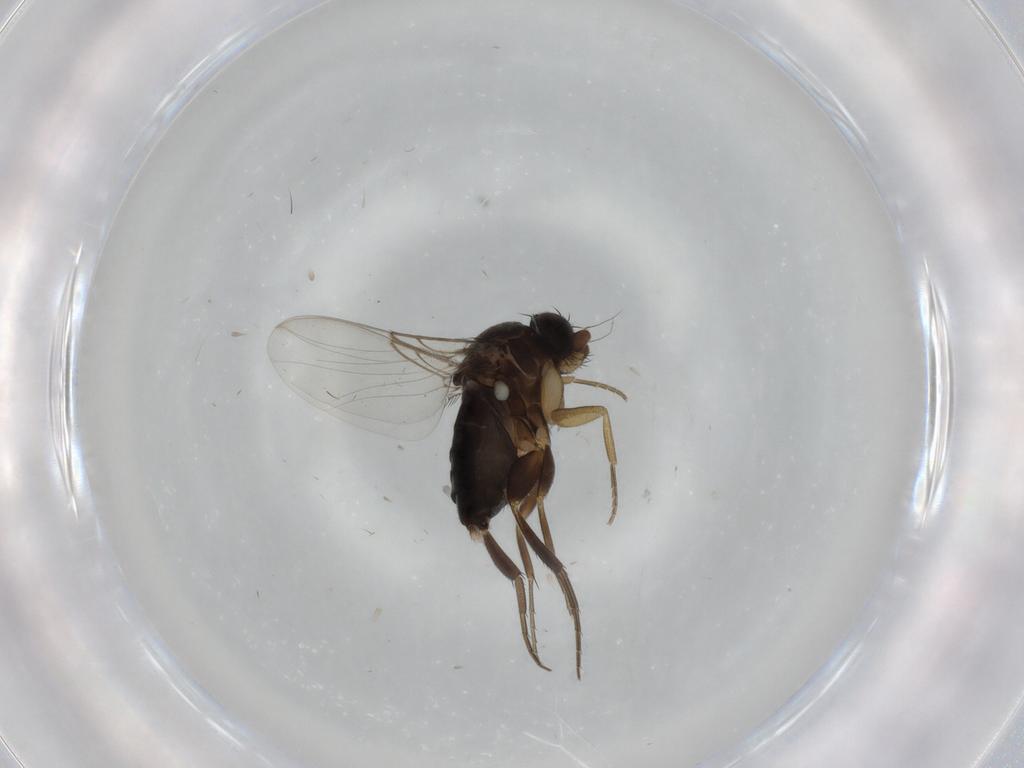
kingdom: Animalia
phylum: Arthropoda
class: Insecta
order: Diptera
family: Phoridae
